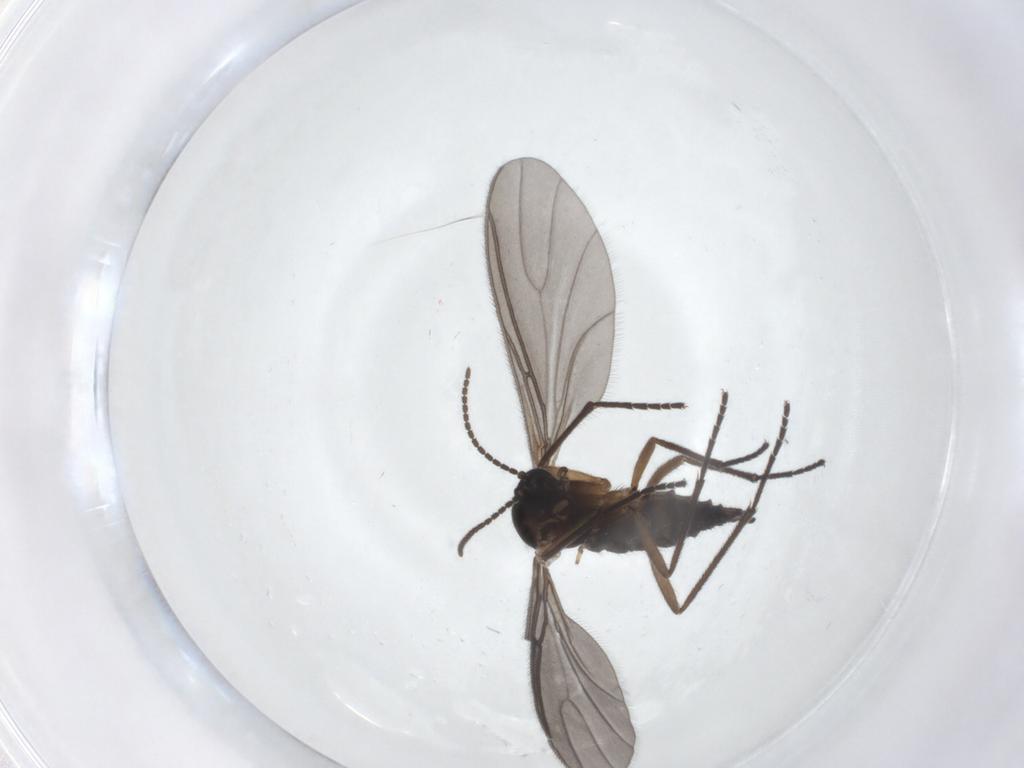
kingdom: Animalia
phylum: Arthropoda
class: Insecta
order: Diptera
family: Sciaridae
